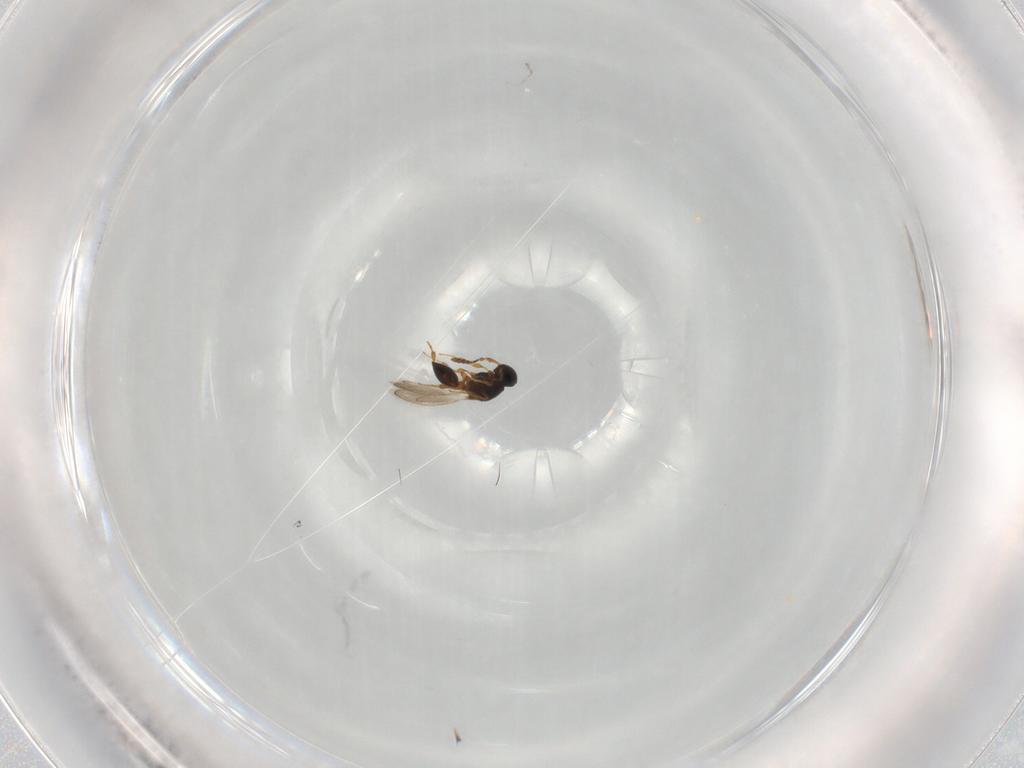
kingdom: Animalia
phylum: Arthropoda
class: Insecta
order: Hymenoptera
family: Platygastridae
